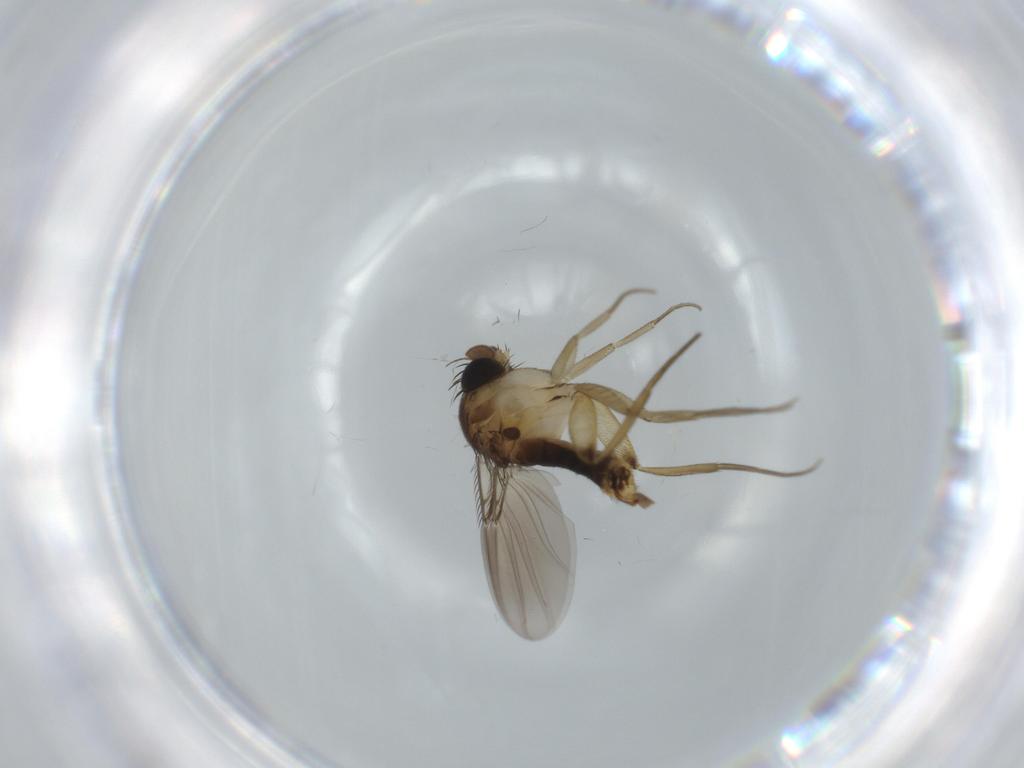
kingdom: Animalia
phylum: Arthropoda
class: Insecta
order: Diptera
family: Phoridae
